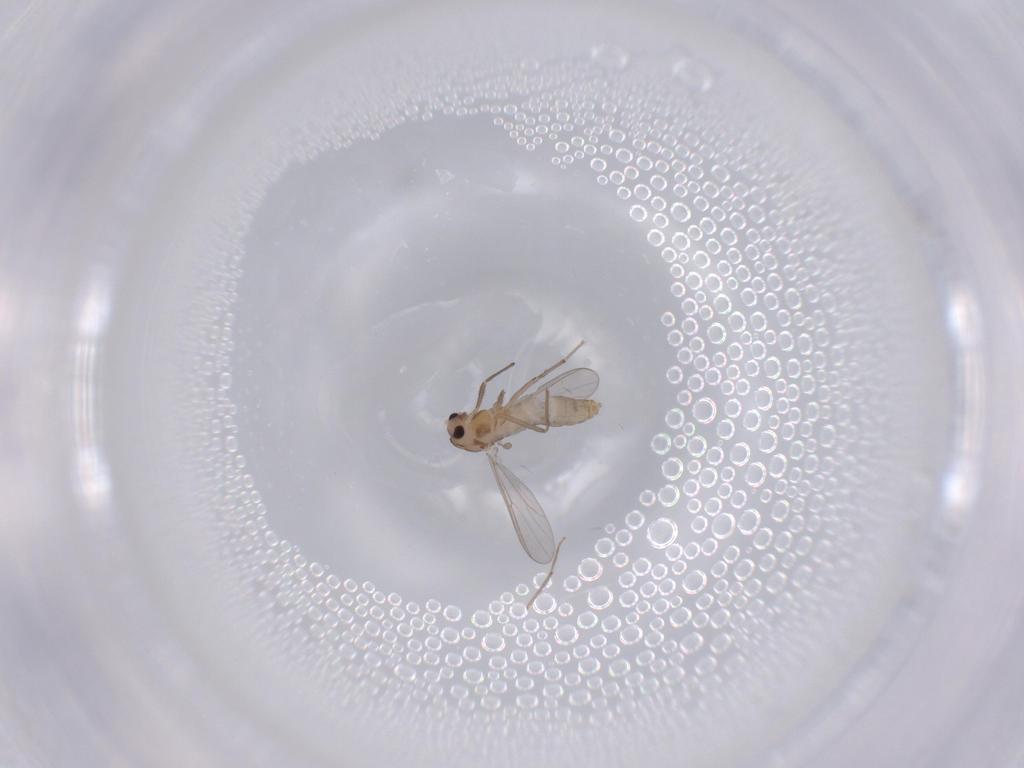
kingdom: Animalia
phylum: Arthropoda
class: Insecta
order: Diptera
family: Chironomidae
